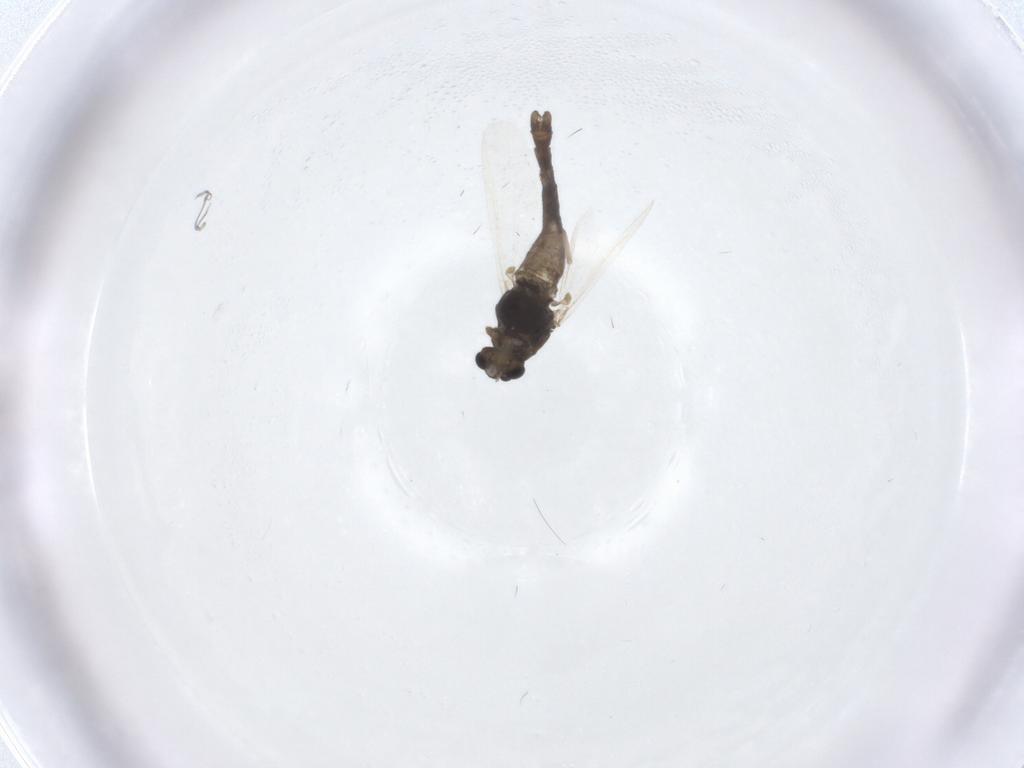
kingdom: Animalia
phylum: Arthropoda
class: Insecta
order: Diptera
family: Chironomidae
